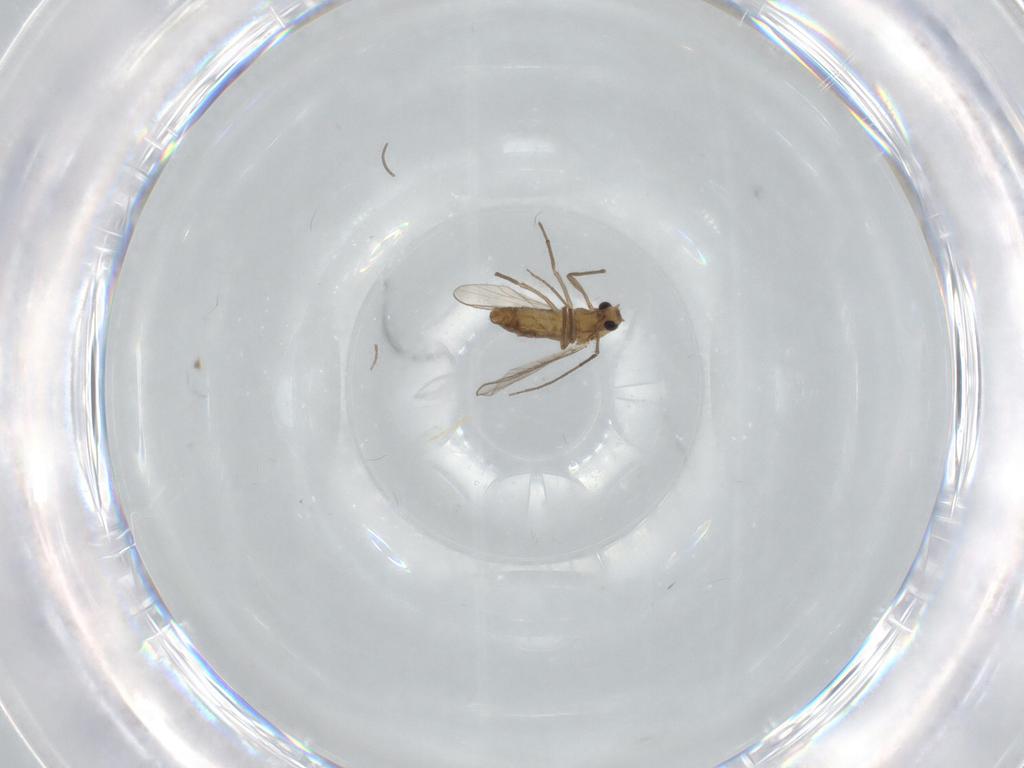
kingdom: Animalia
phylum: Arthropoda
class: Insecta
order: Diptera
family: Chironomidae
